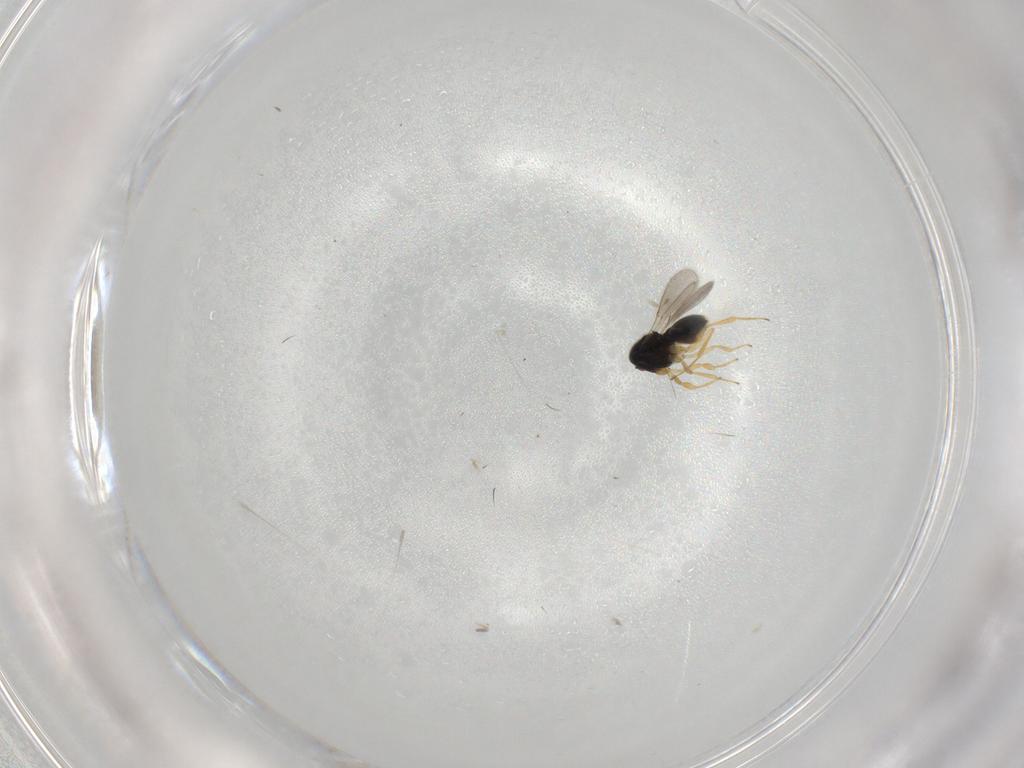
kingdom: Animalia
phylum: Arthropoda
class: Insecta
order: Hymenoptera
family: Scelionidae
